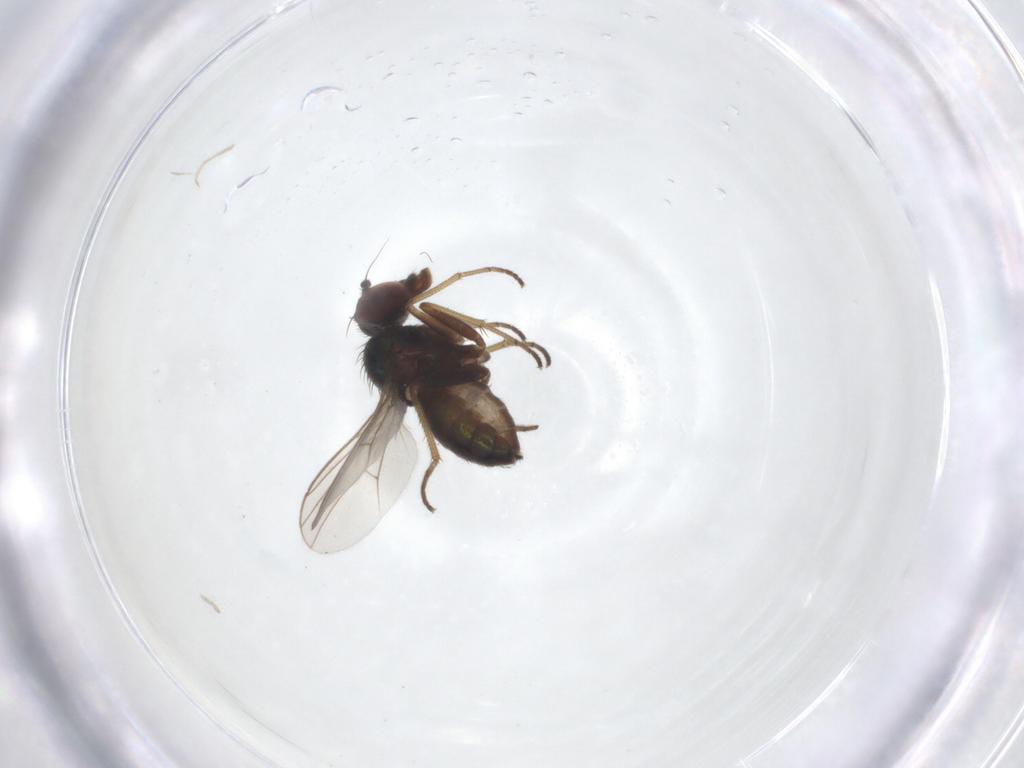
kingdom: Animalia
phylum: Arthropoda
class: Insecta
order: Diptera
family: Dolichopodidae
